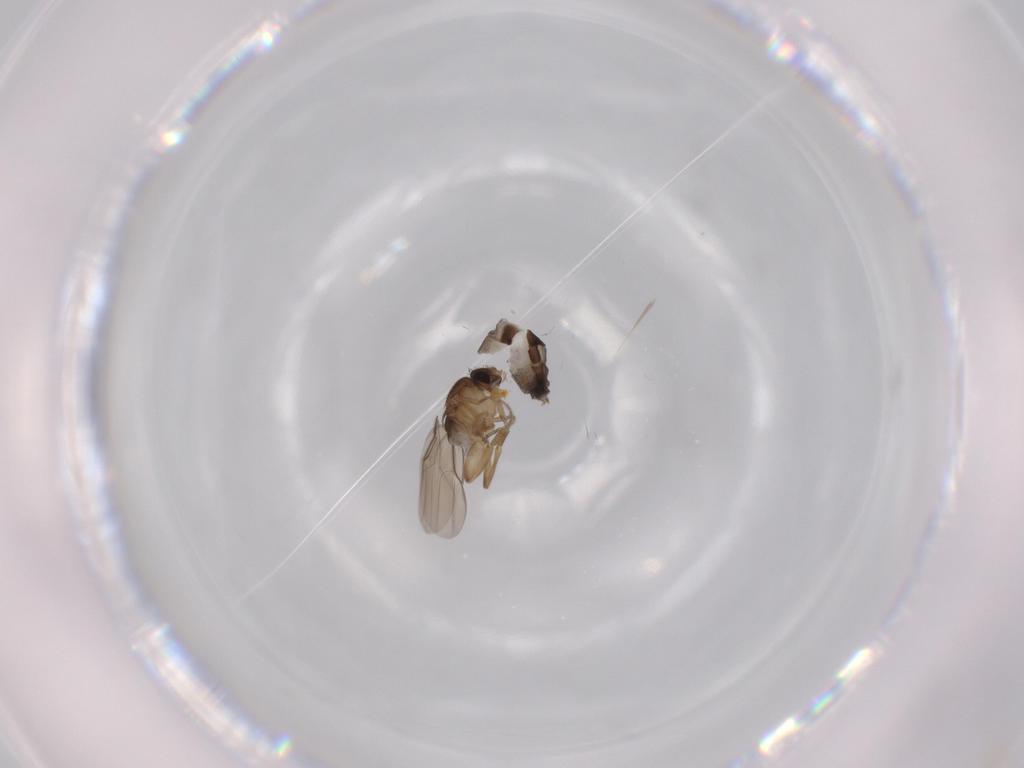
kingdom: Animalia
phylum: Arthropoda
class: Insecta
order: Diptera
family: Phoridae
